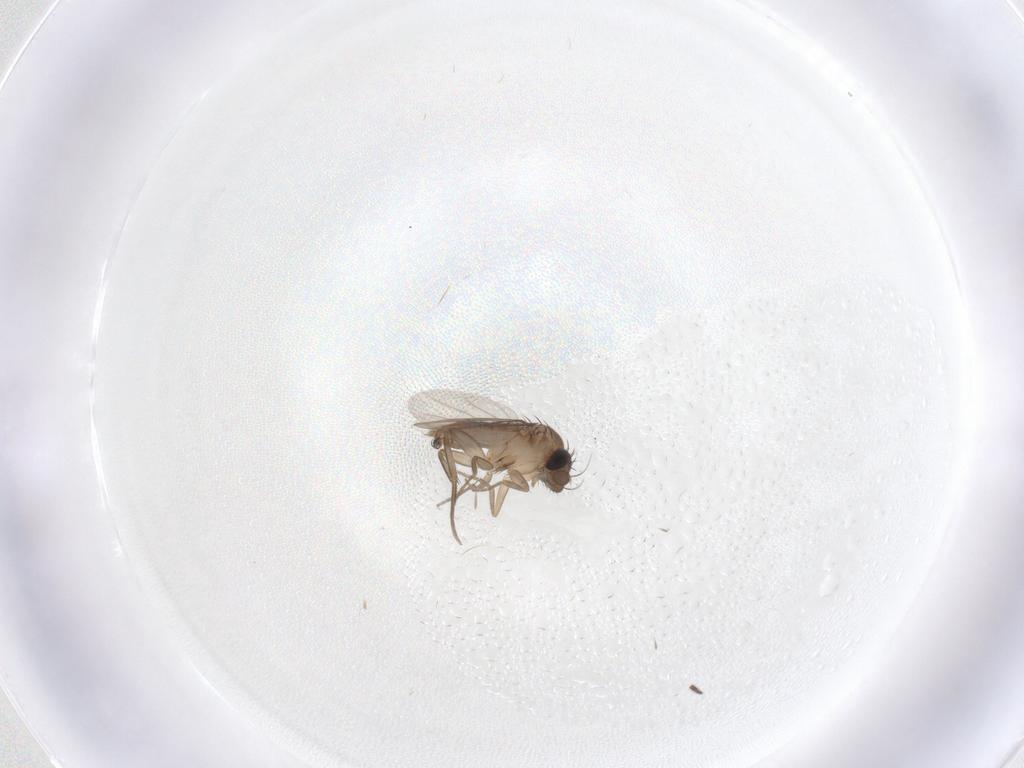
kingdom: Animalia
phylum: Arthropoda
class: Insecta
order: Diptera
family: Phoridae
